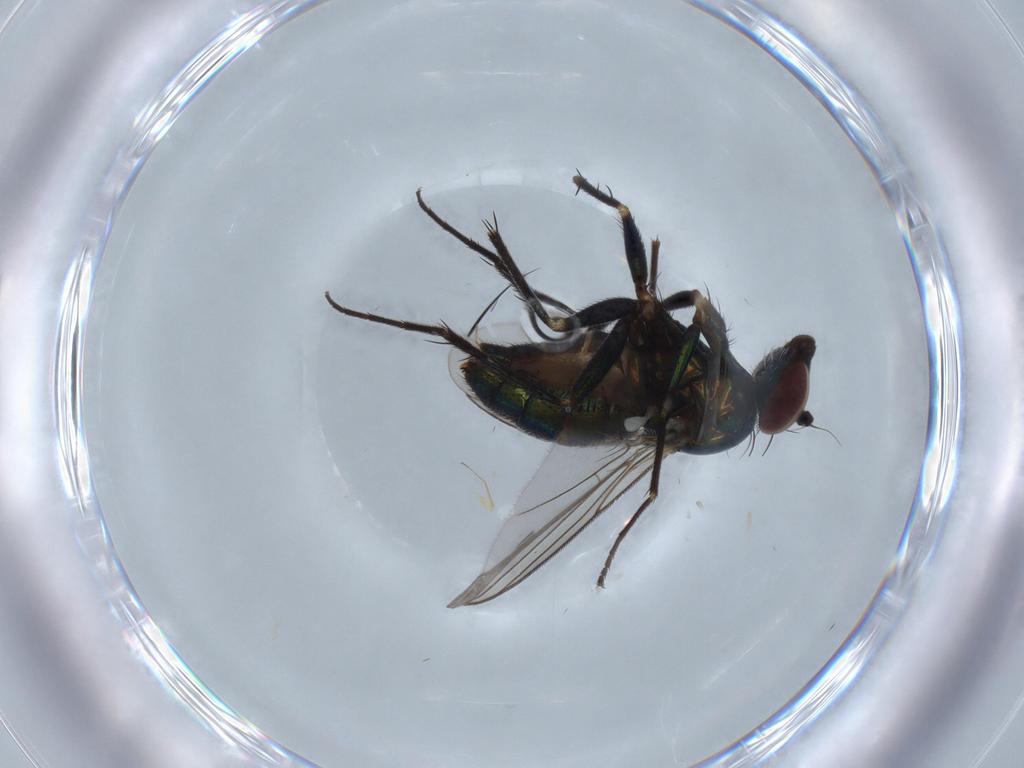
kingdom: Animalia
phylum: Arthropoda
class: Insecta
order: Diptera
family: Dolichopodidae
